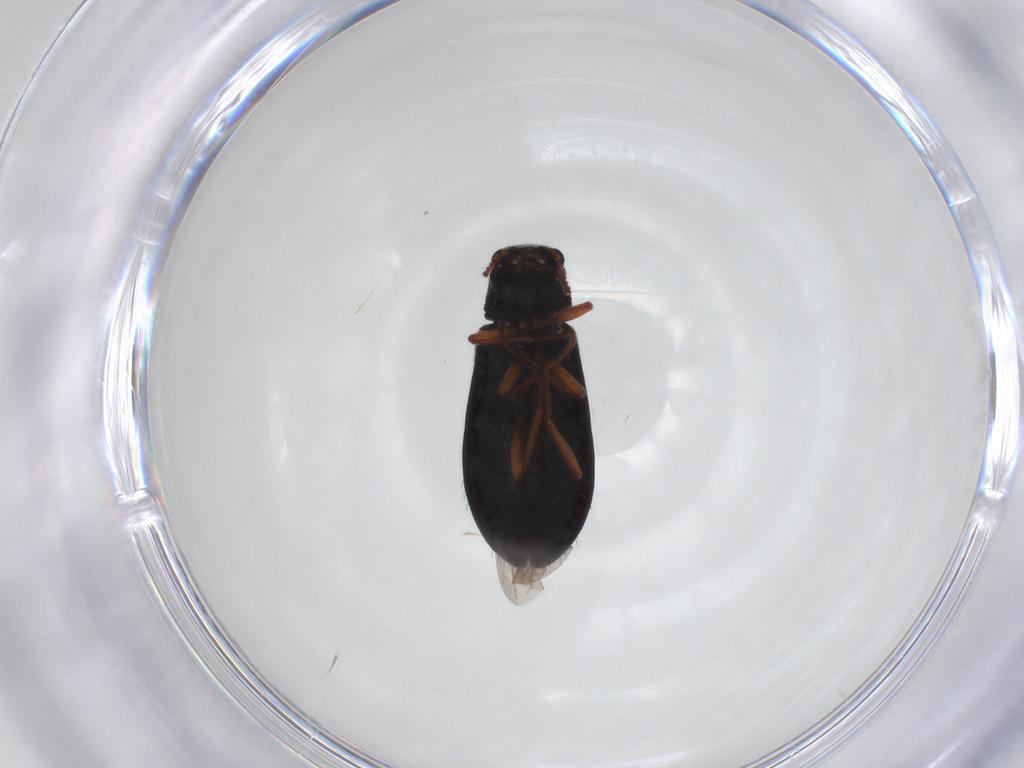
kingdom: Animalia
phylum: Arthropoda
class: Insecta
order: Coleoptera
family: Melyridae
